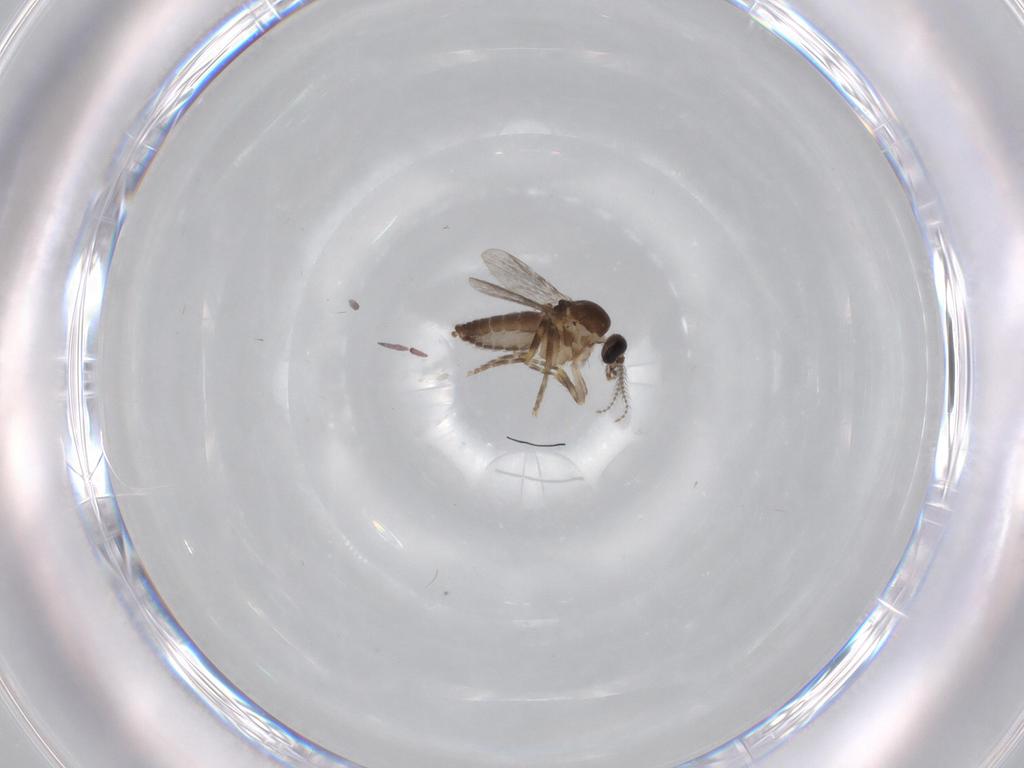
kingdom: Animalia
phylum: Arthropoda
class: Insecta
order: Diptera
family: Ceratopogonidae
